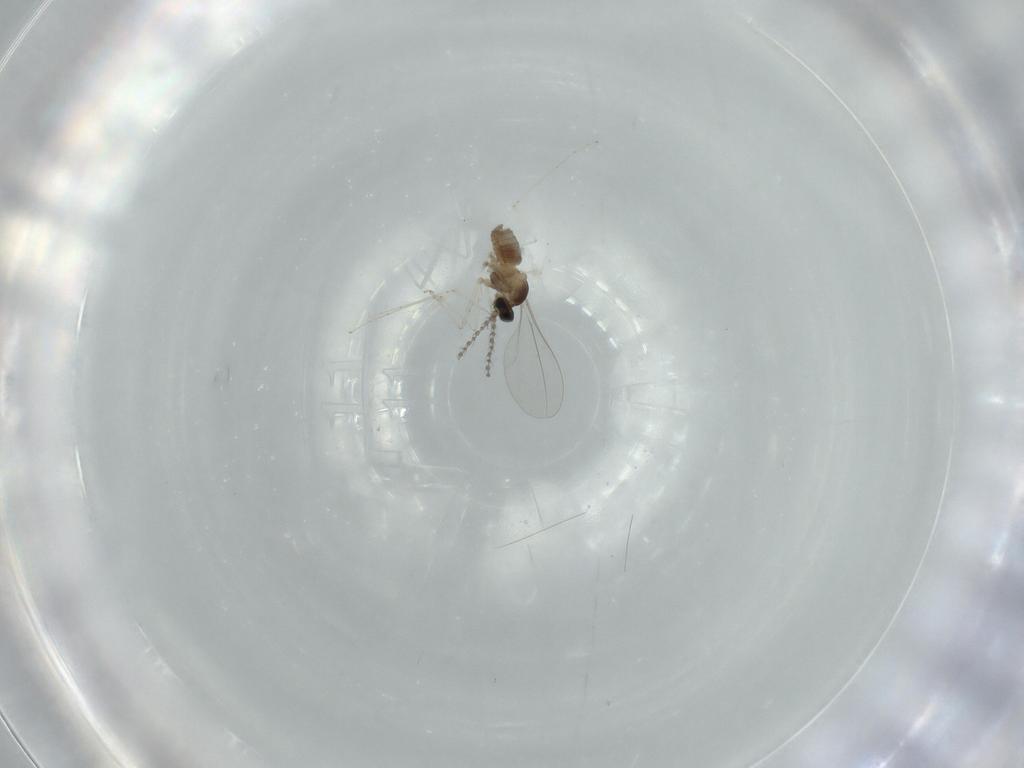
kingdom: Animalia
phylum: Arthropoda
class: Insecta
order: Diptera
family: Cecidomyiidae
